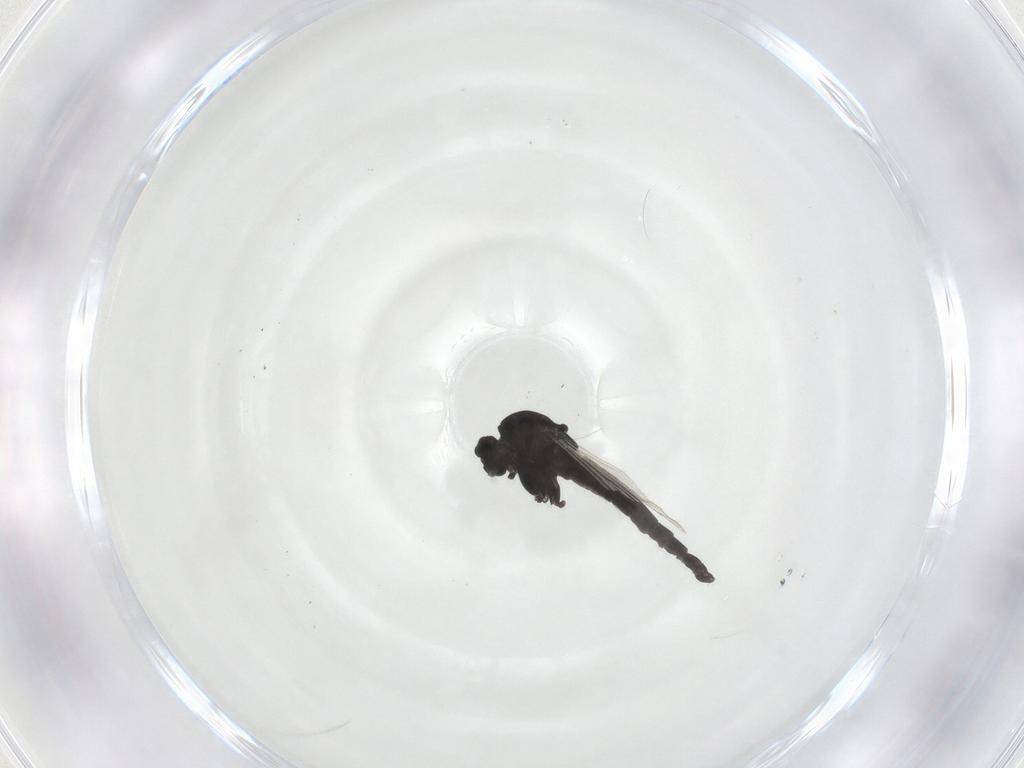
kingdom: Animalia
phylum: Arthropoda
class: Insecta
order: Diptera
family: Chironomidae
